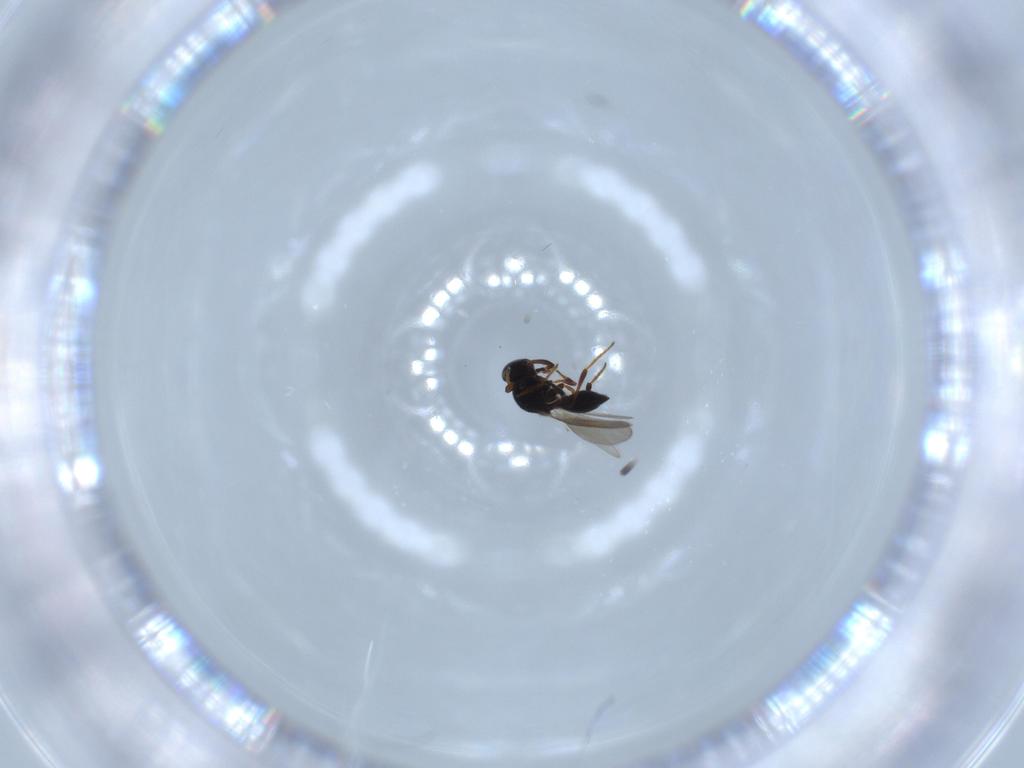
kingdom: Animalia
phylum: Arthropoda
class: Insecta
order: Hymenoptera
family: Platygastridae
